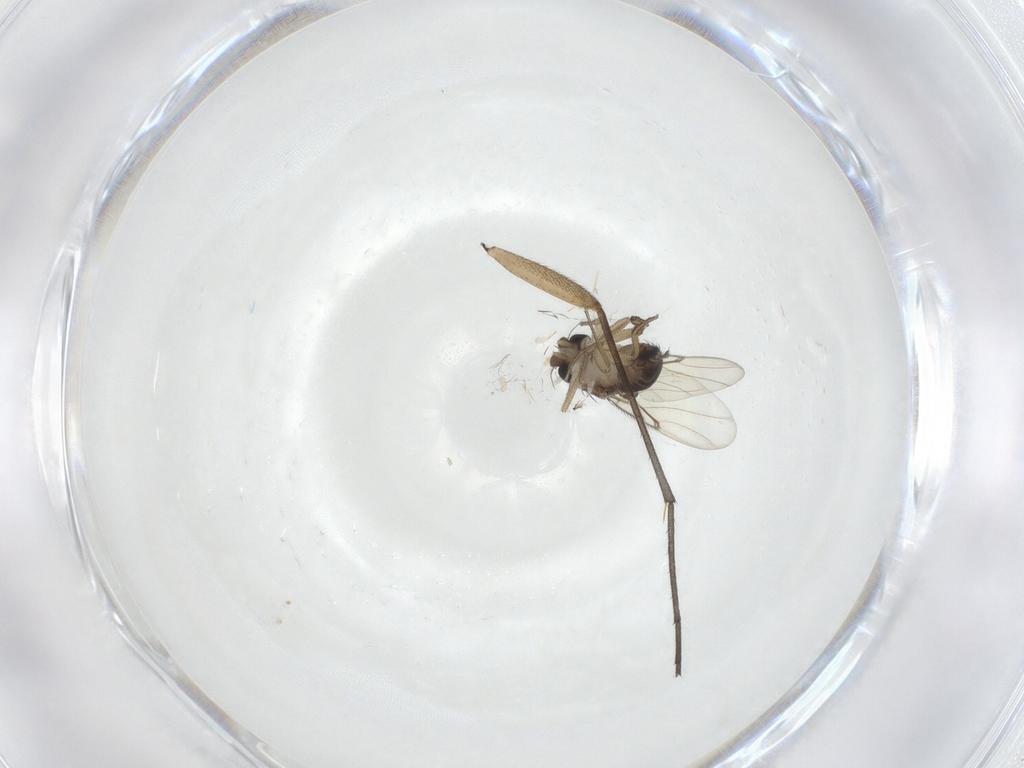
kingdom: Animalia
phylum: Arthropoda
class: Insecta
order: Diptera
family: Sciaridae
